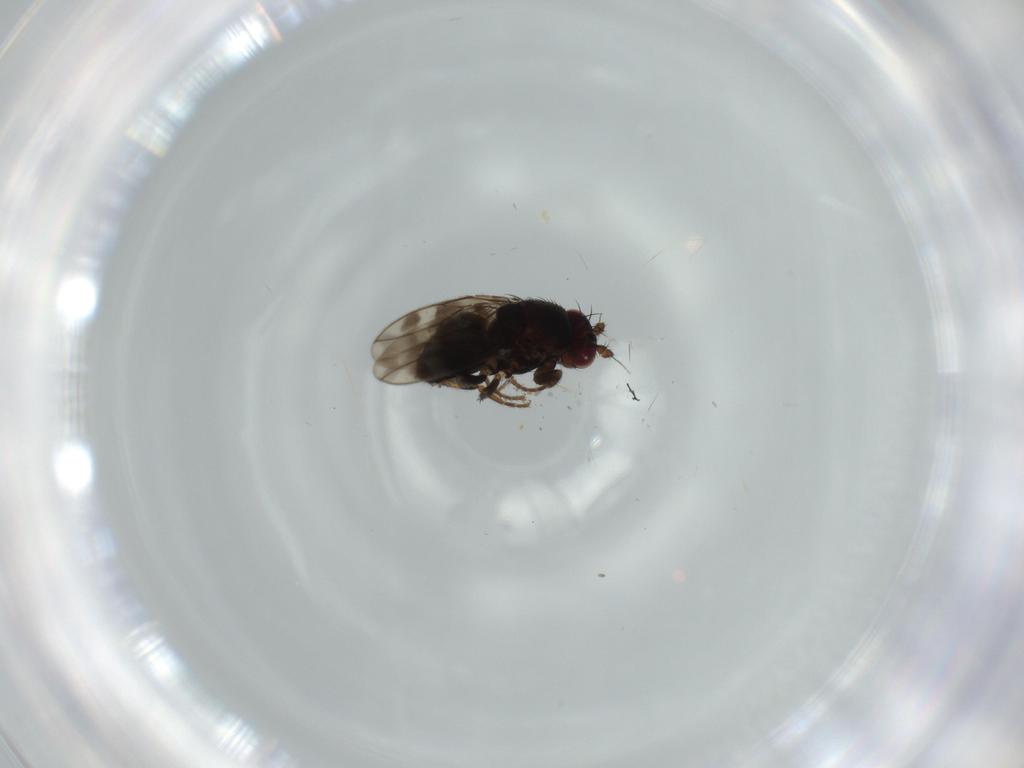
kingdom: Animalia
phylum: Arthropoda
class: Insecta
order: Diptera
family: Sphaeroceridae
